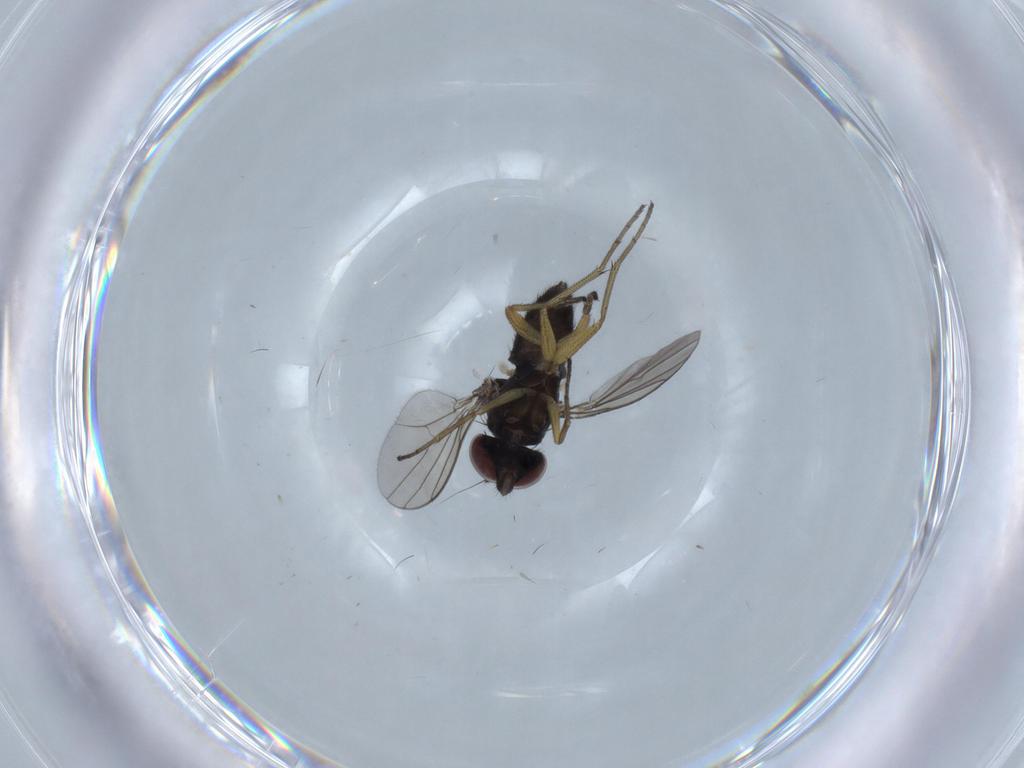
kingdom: Animalia
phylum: Arthropoda
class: Insecta
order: Diptera
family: Dolichopodidae
